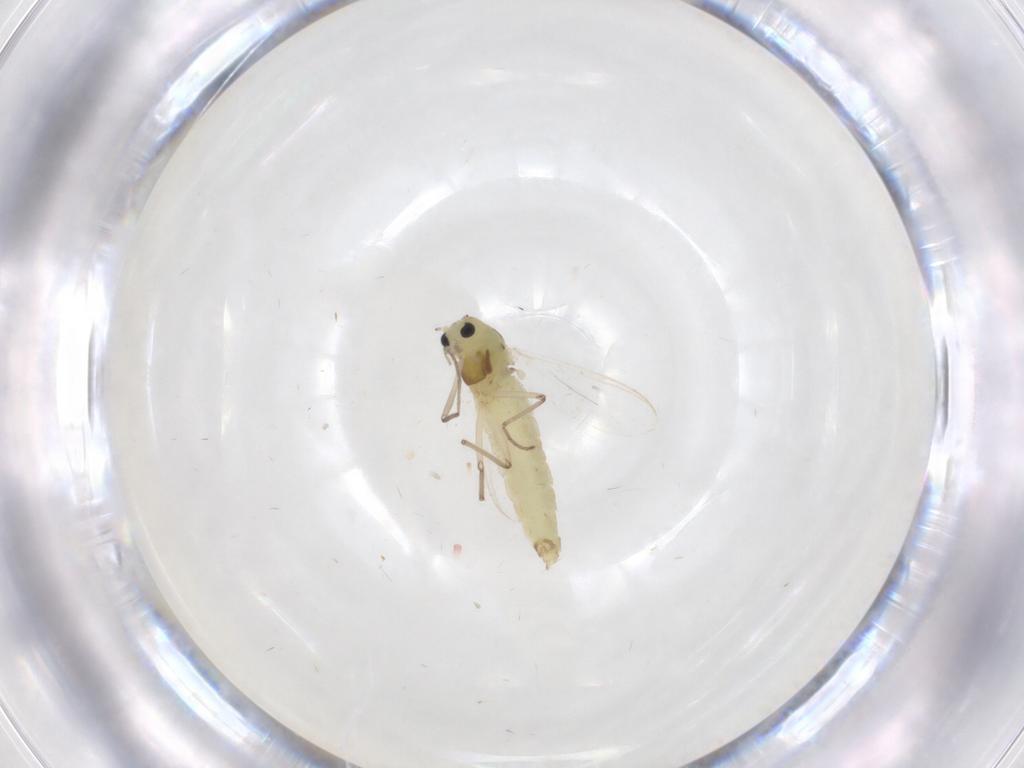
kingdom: Animalia
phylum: Arthropoda
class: Insecta
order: Diptera
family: Chironomidae
